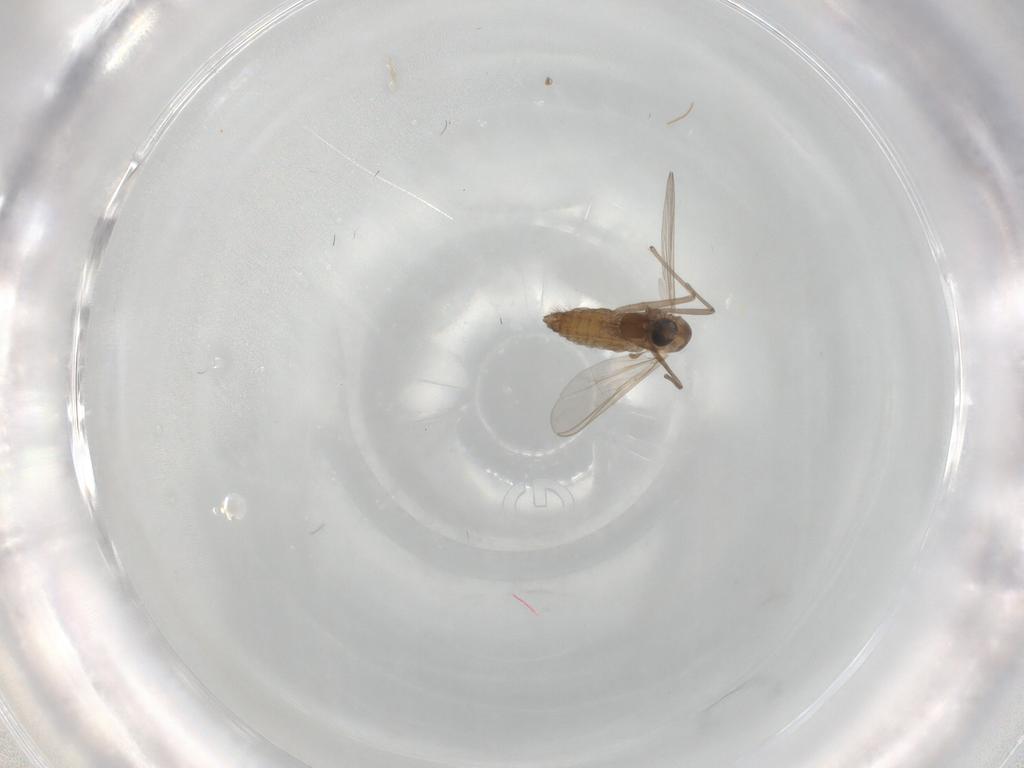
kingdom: Animalia
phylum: Arthropoda
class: Insecta
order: Diptera
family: Dolichopodidae
